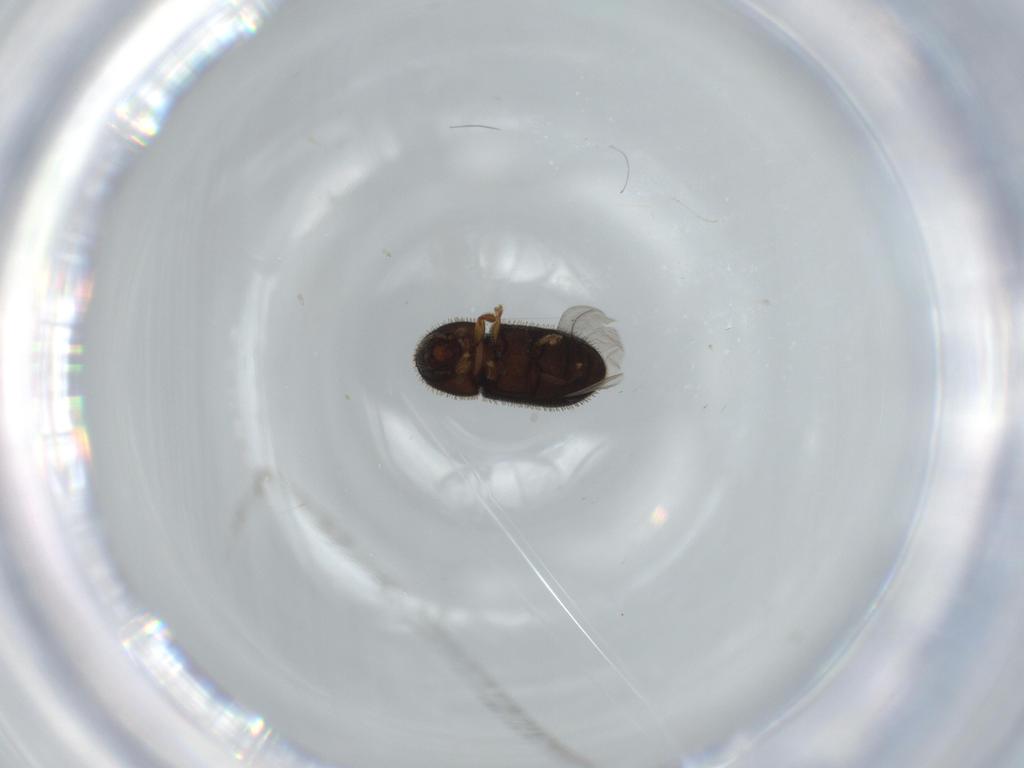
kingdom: Animalia
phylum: Arthropoda
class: Insecta
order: Coleoptera
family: Curculionidae
